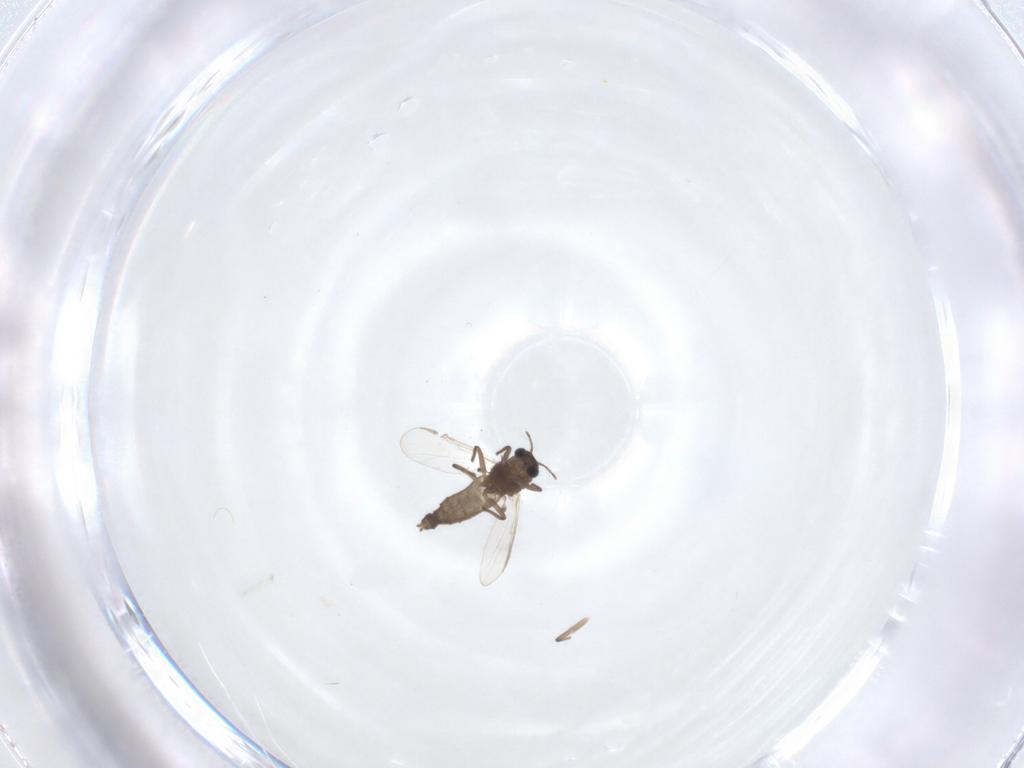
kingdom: Animalia
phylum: Arthropoda
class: Insecta
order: Diptera
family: Chironomidae
